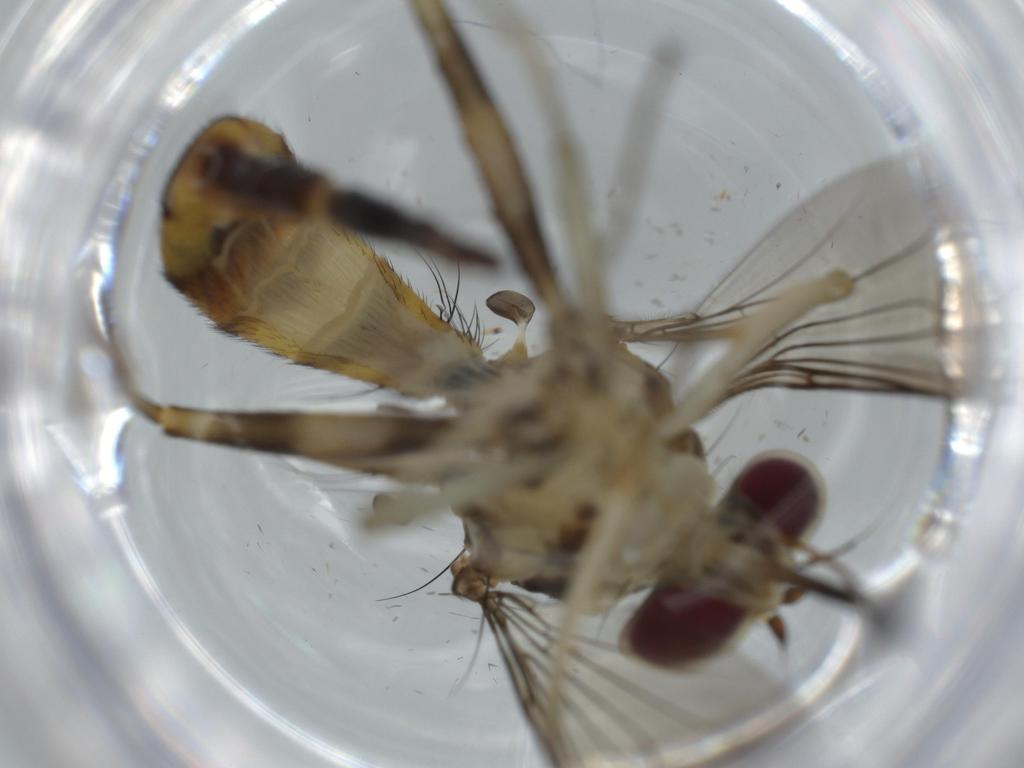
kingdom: Animalia
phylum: Arthropoda
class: Insecta
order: Diptera
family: Cecidomyiidae
